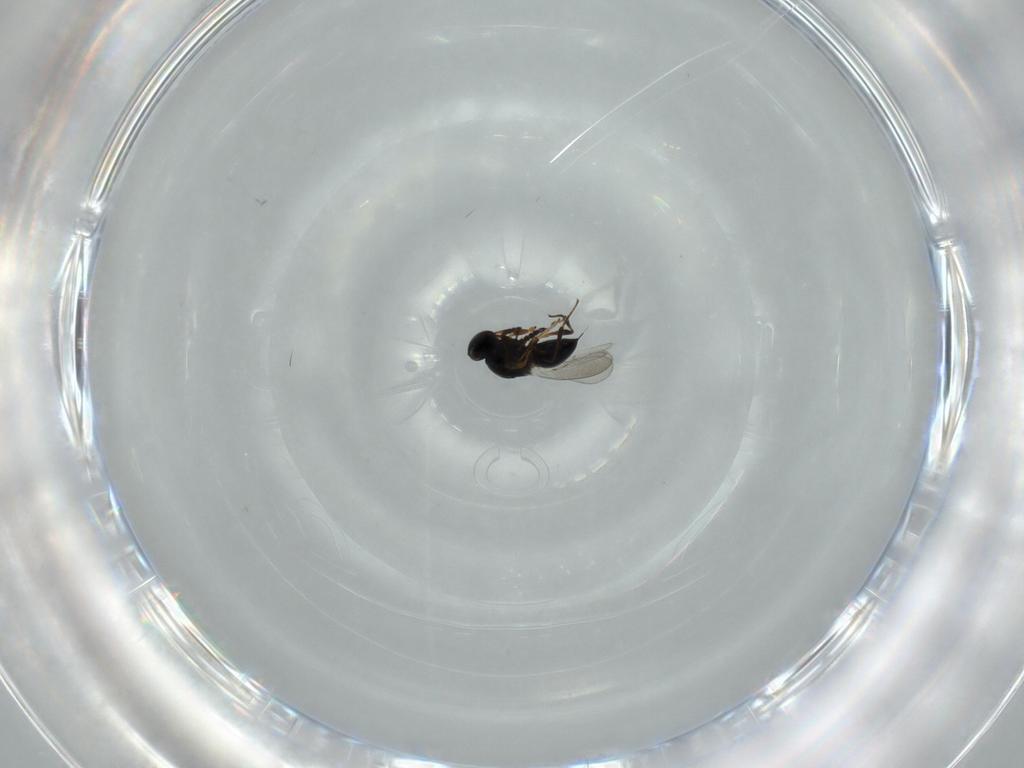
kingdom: Animalia
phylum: Arthropoda
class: Insecta
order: Hymenoptera
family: Platygastridae
